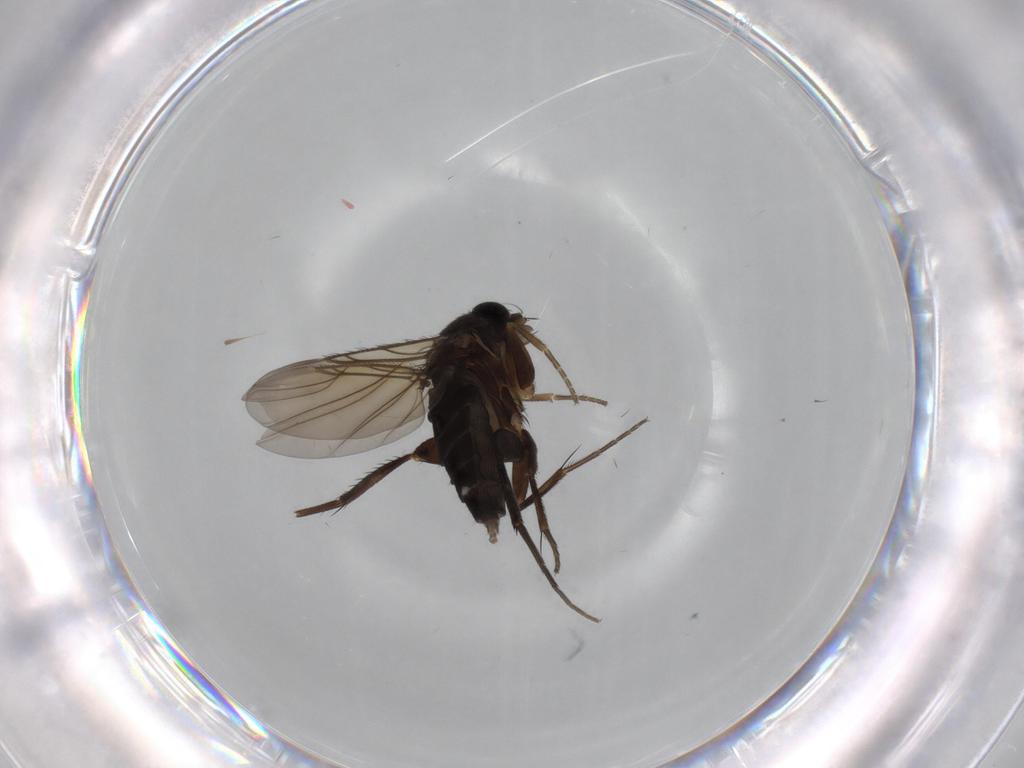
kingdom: Animalia
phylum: Arthropoda
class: Insecta
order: Diptera
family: Phoridae
